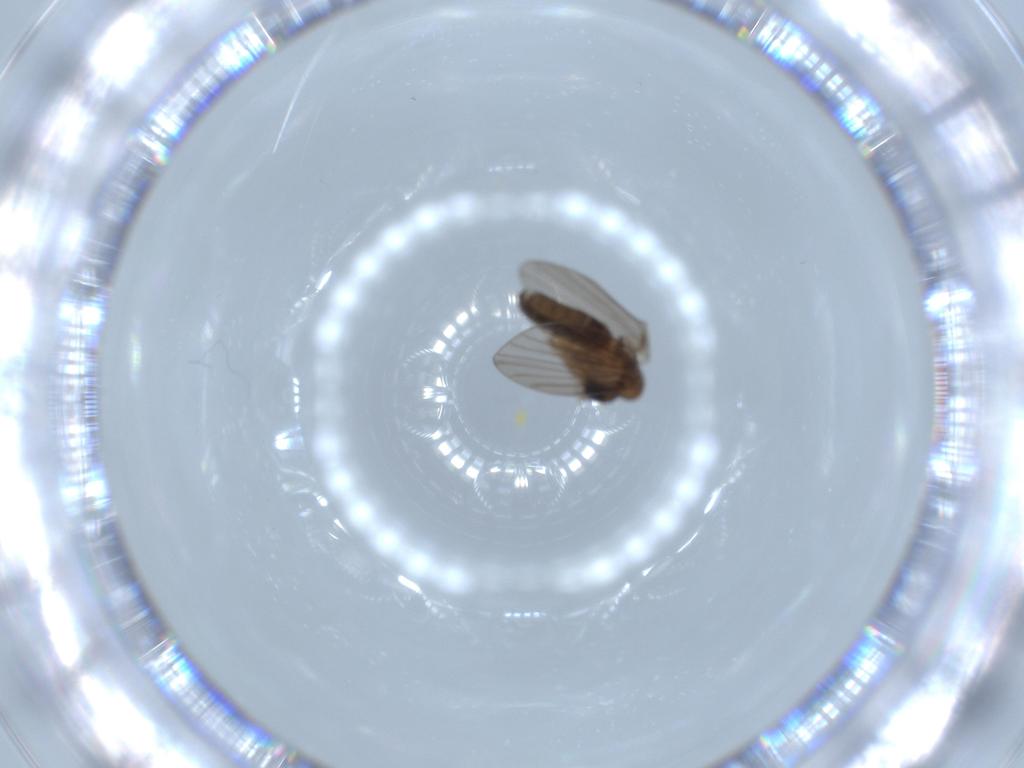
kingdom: Animalia
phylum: Arthropoda
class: Insecta
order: Diptera
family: Psychodidae
